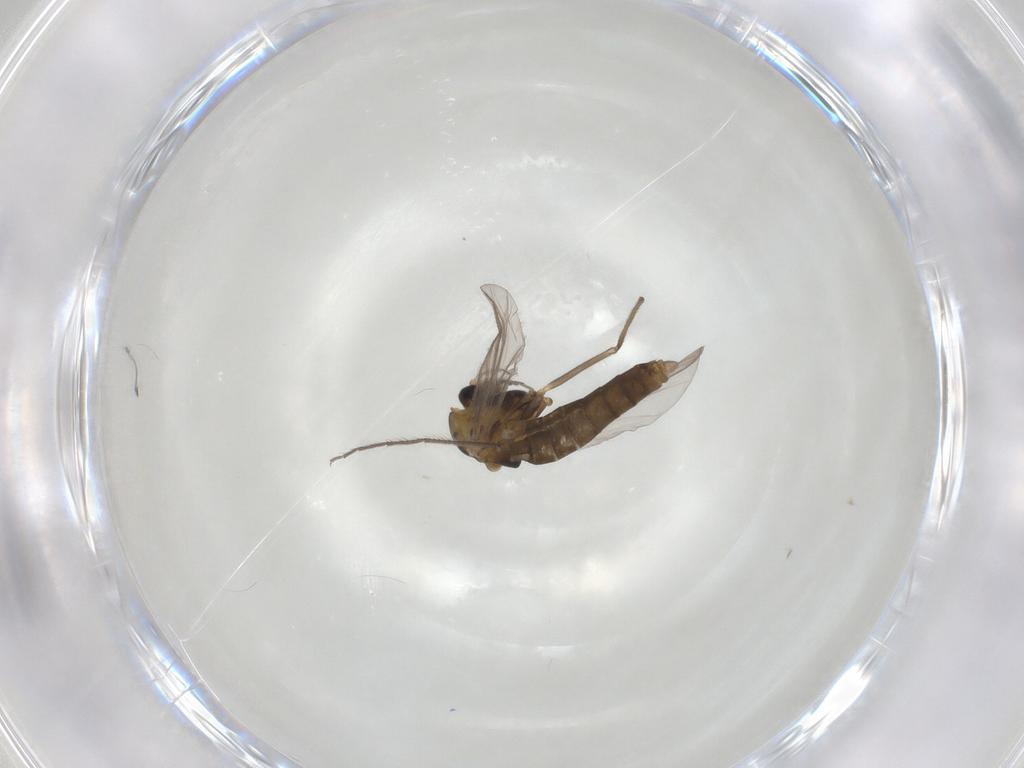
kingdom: Animalia
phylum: Arthropoda
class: Insecta
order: Diptera
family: Chironomidae
